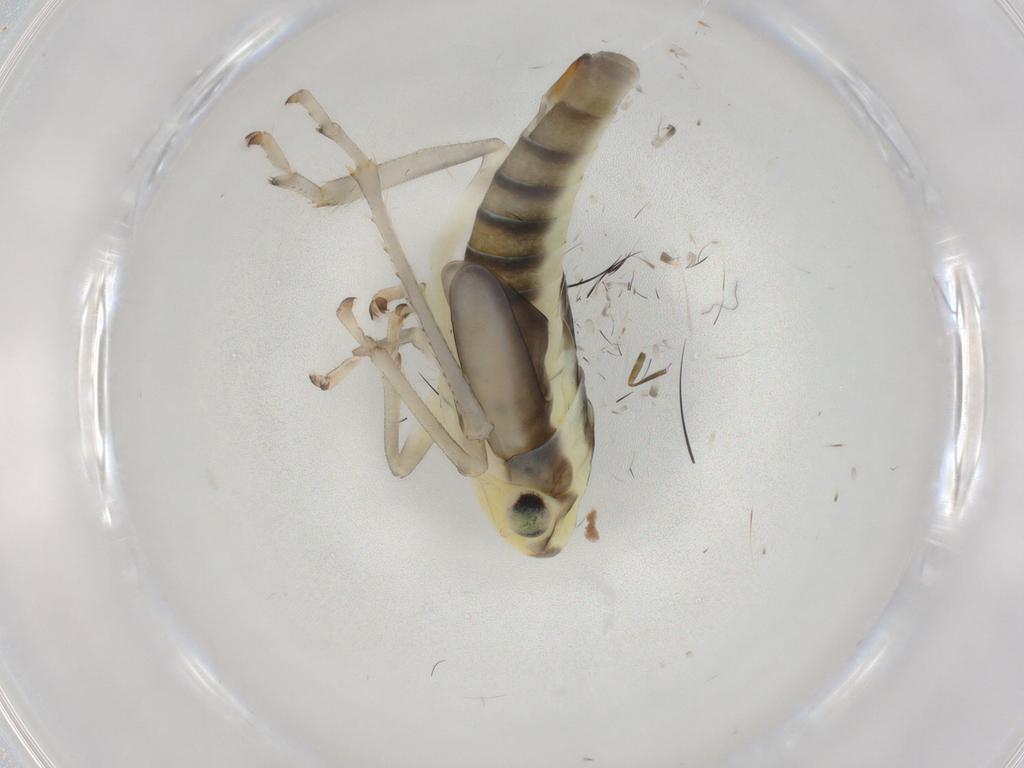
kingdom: Animalia
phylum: Arthropoda
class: Insecta
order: Hemiptera
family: Cicadellidae
